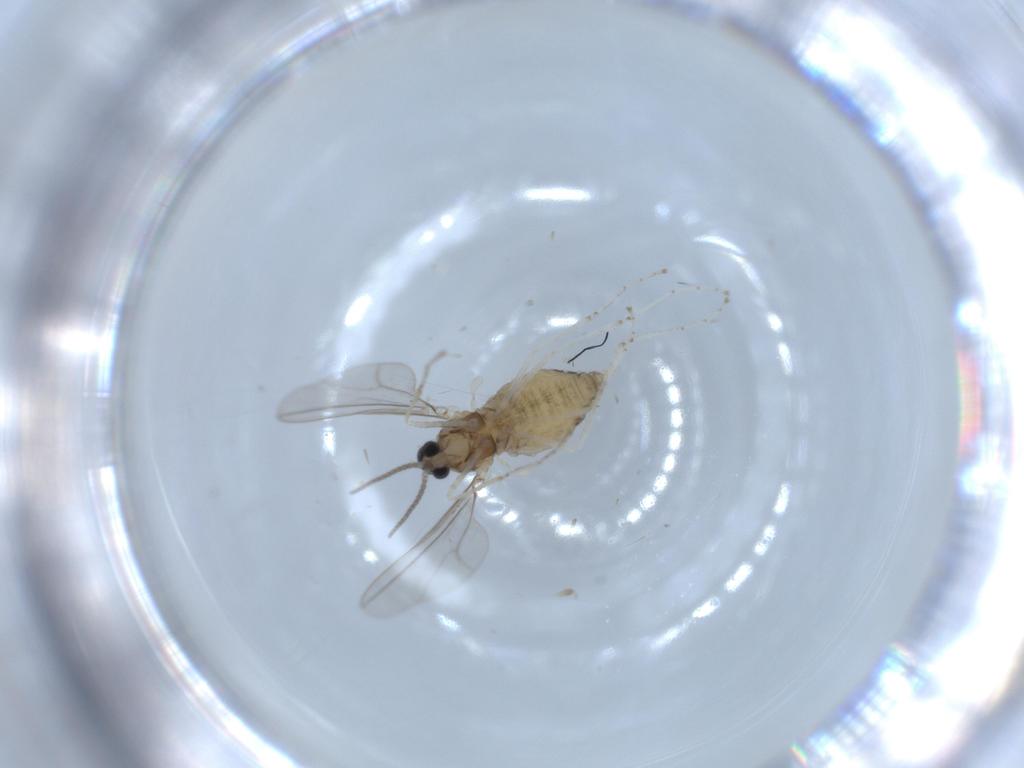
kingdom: Animalia
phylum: Arthropoda
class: Insecta
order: Diptera
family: Cecidomyiidae
